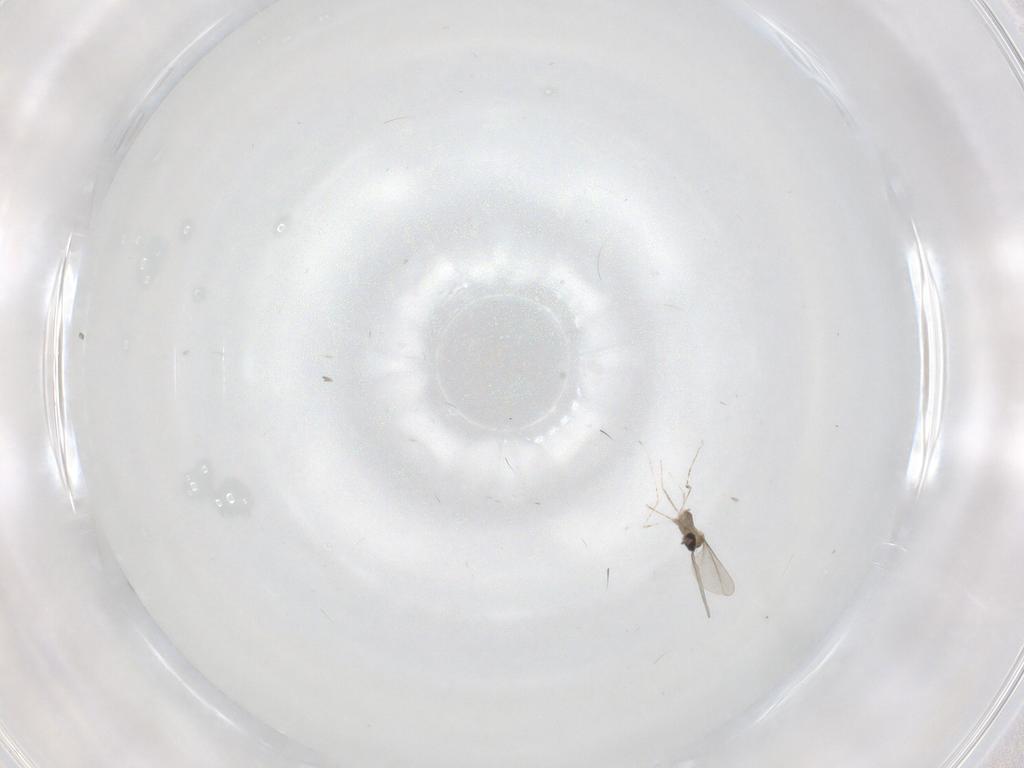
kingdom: Animalia
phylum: Arthropoda
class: Insecta
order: Diptera
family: Cecidomyiidae
